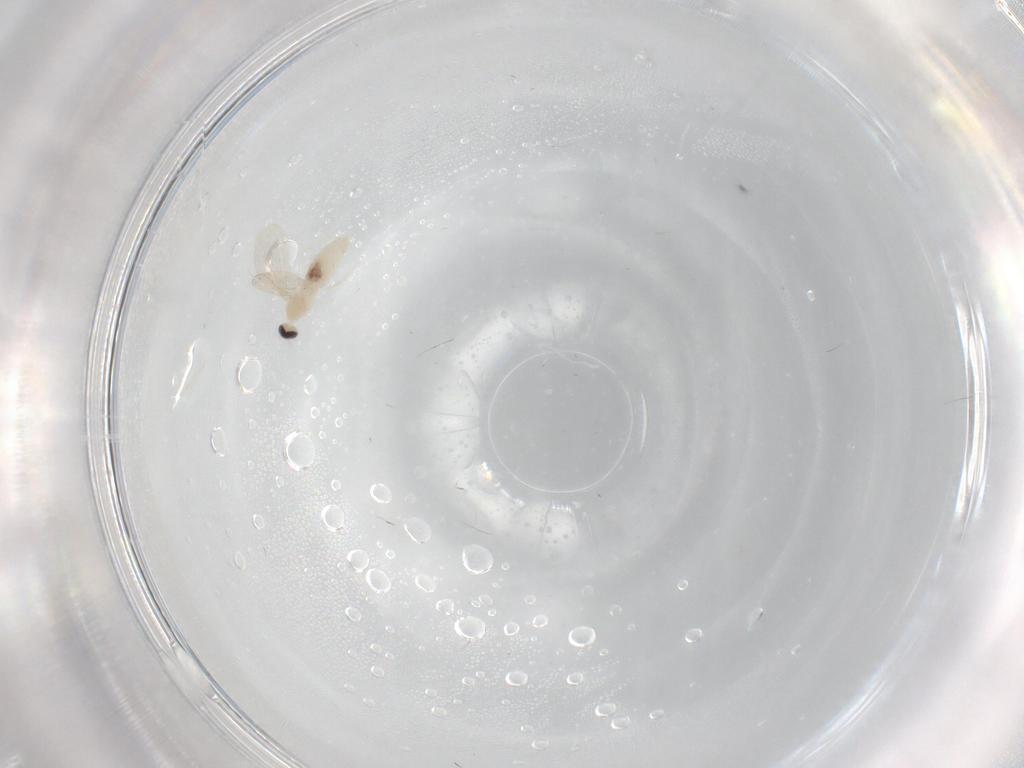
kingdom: Animalia
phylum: Arthropoda
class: Insecta
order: Diptera
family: Cecidomyiidae
